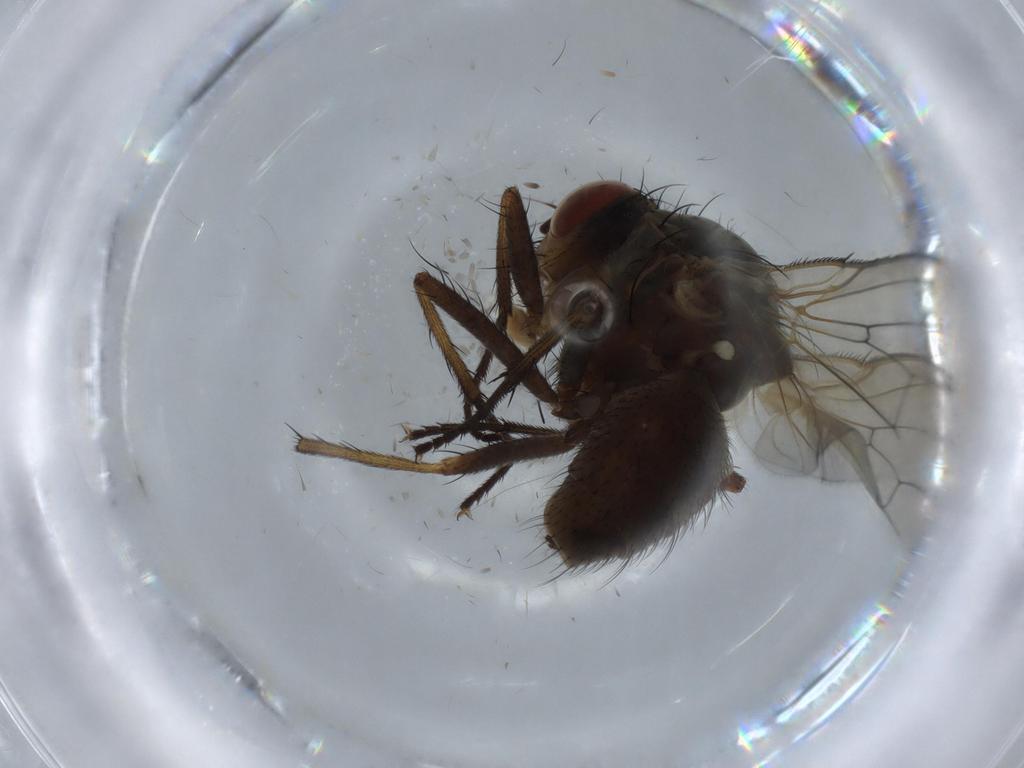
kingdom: Animalia
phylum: Arthropoda
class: Insecta
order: Diptera
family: Anthomyiidae
